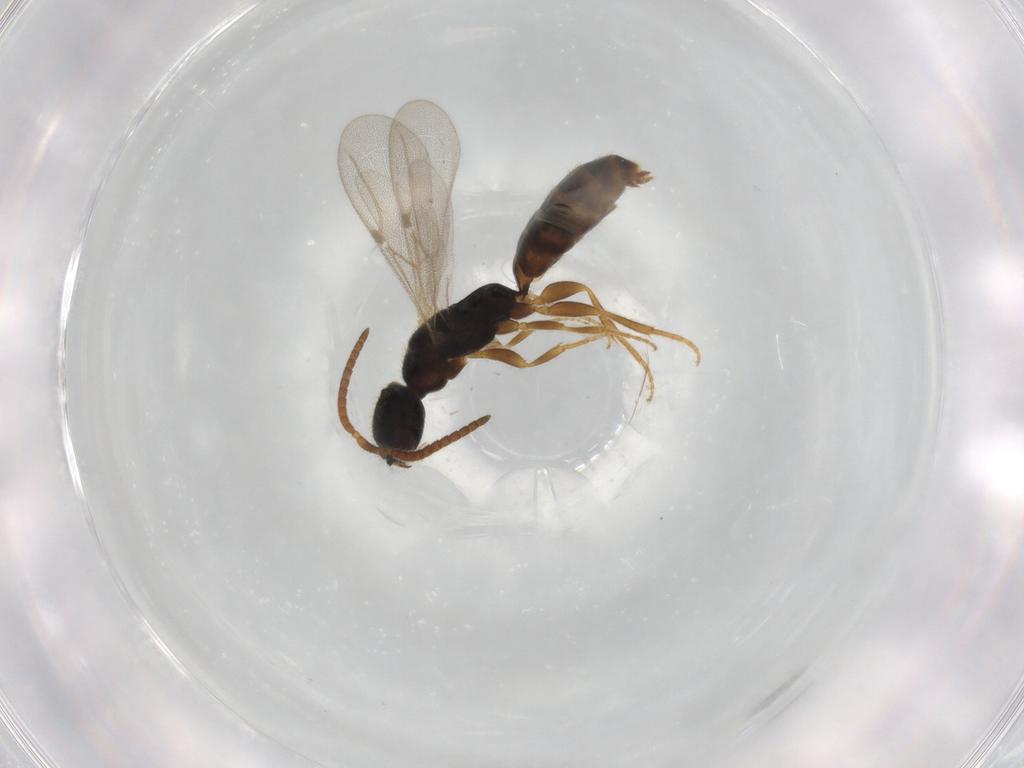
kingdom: Animalia
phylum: Arthropoda
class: Insecta
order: Hymenoptera
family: Bethylidae
